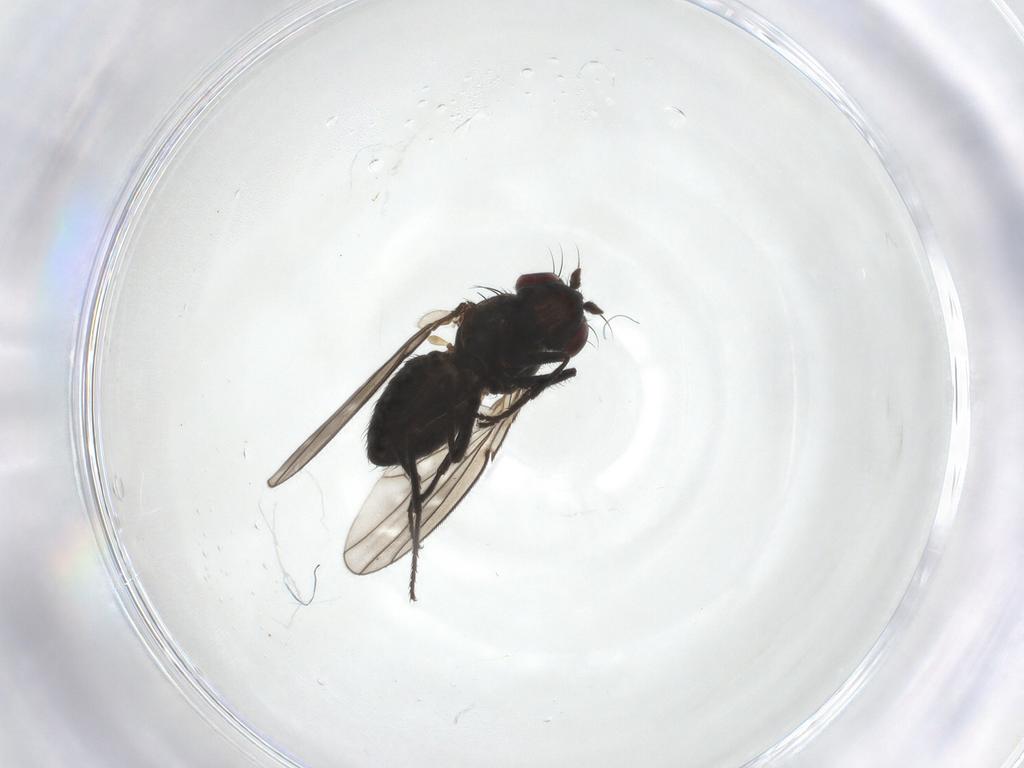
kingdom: Animalia
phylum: Arthropoda
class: Insecta
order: Diptera
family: Ephydridae
